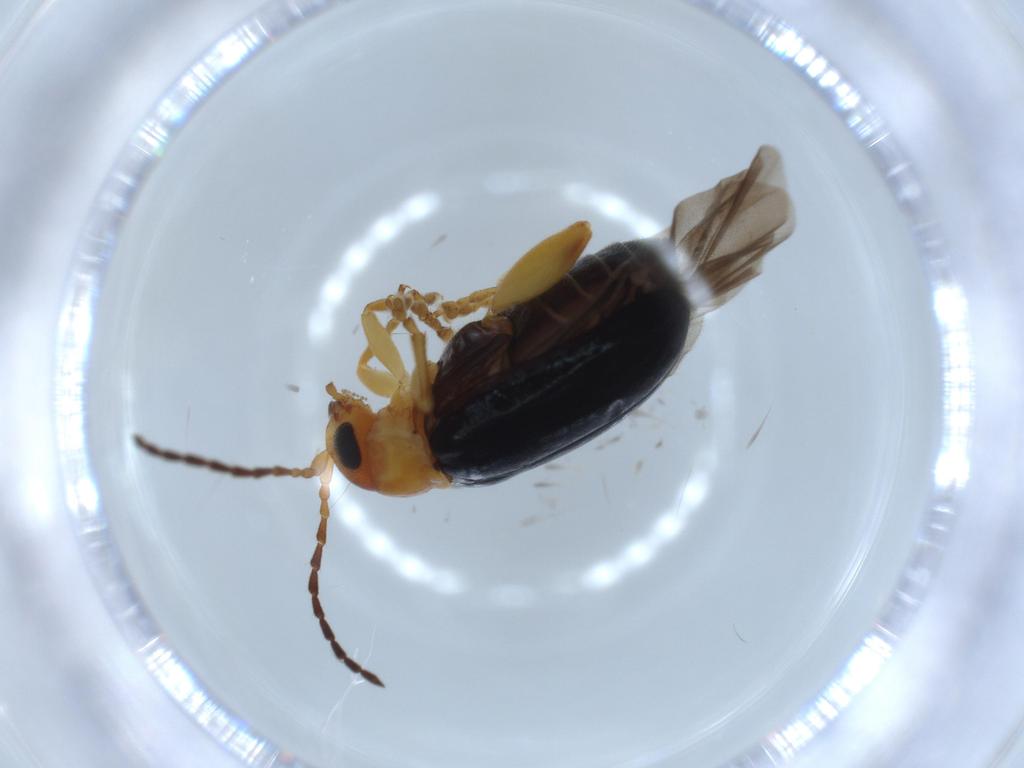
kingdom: Animalia
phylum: Arthropoda
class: Insecta
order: Coleoptera
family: Chrysomelidae
